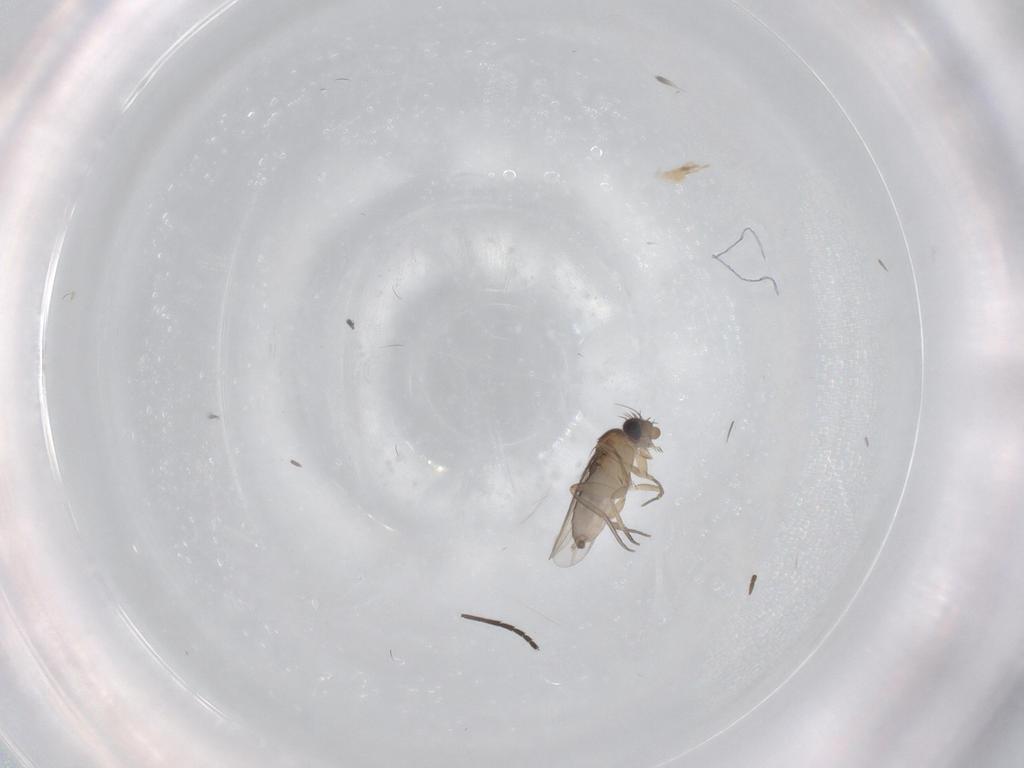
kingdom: Animalia
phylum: Arthropoda
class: Insecta
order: Diptera
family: Phoridae
